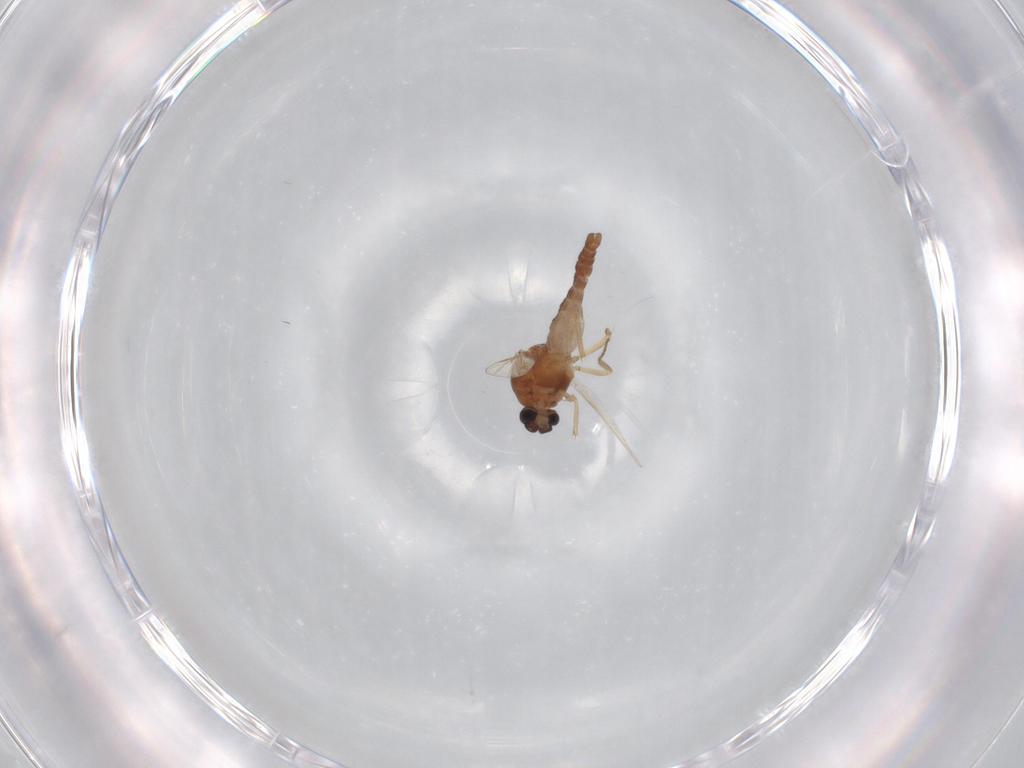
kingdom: Animalia
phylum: Arthropoda
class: Insecta
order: Diptera
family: Ceratopogonidae
